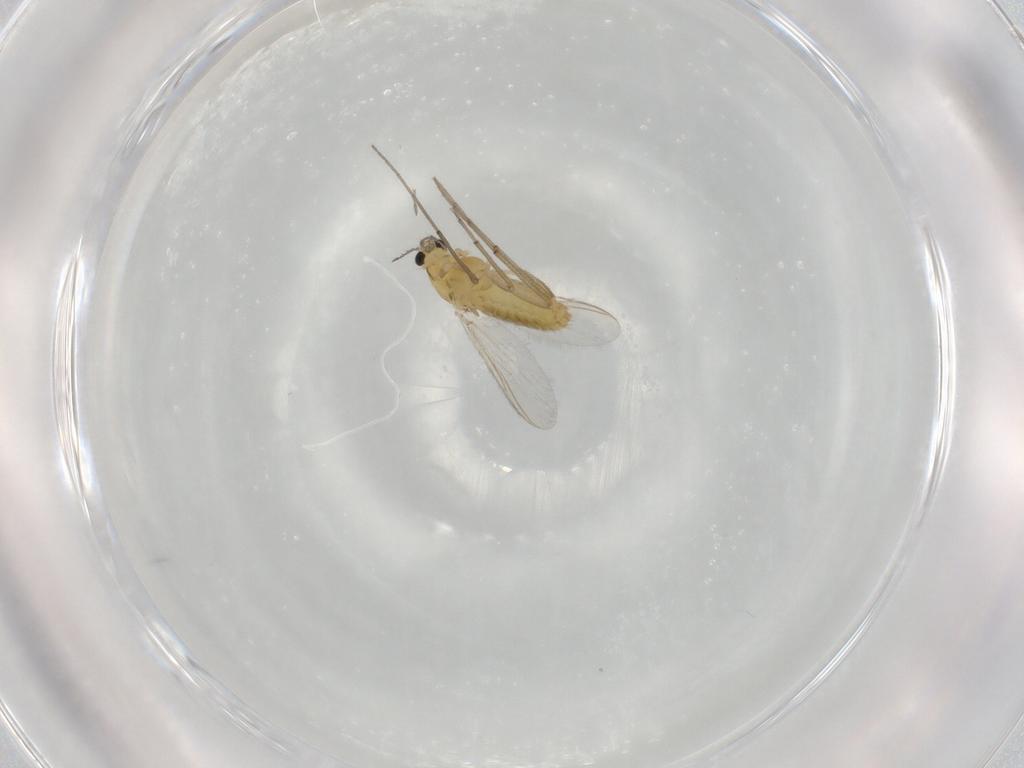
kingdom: Animalia
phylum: Arthropoda
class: Insecta
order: Diptera
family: Chironomidae
